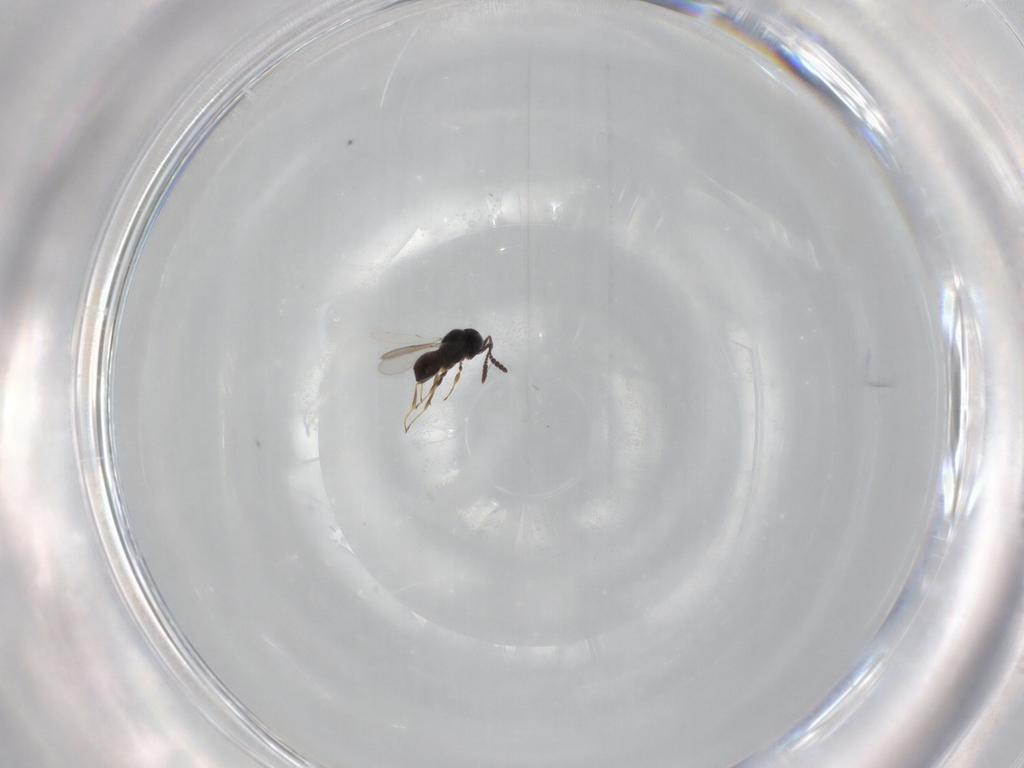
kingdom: Animalia
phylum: Arthropoda
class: Insecta
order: Hymenoptera
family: Scelionidae
